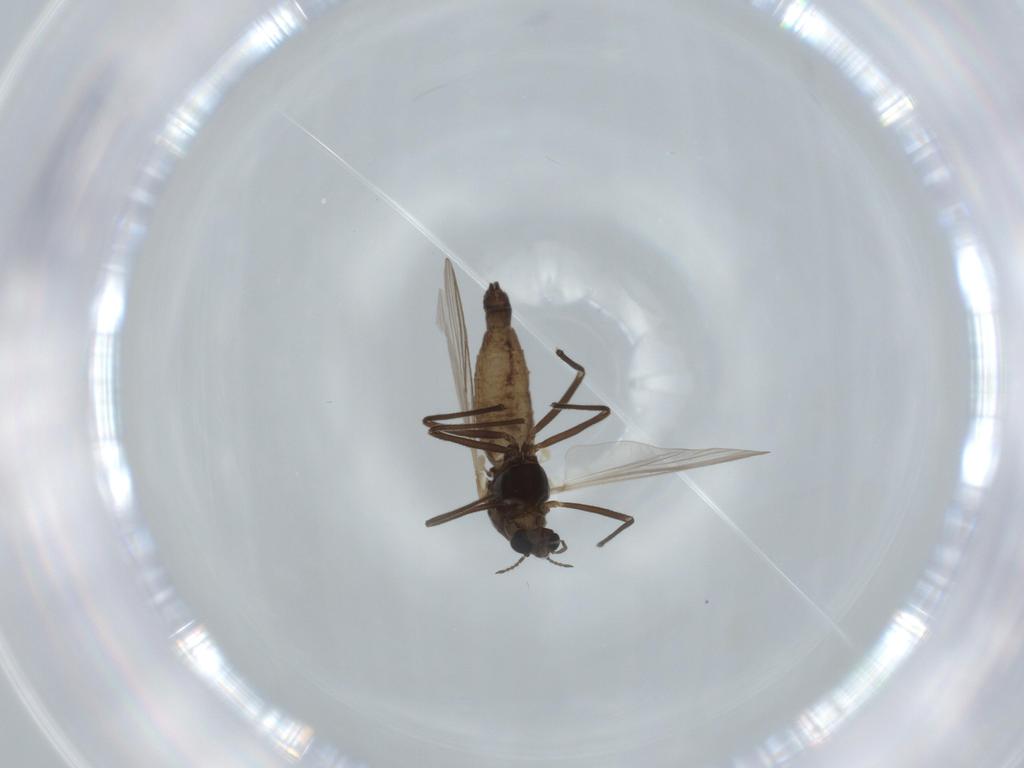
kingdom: Animalia
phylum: Arthropoda
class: Insecta
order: Diptera
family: Chironomidae
